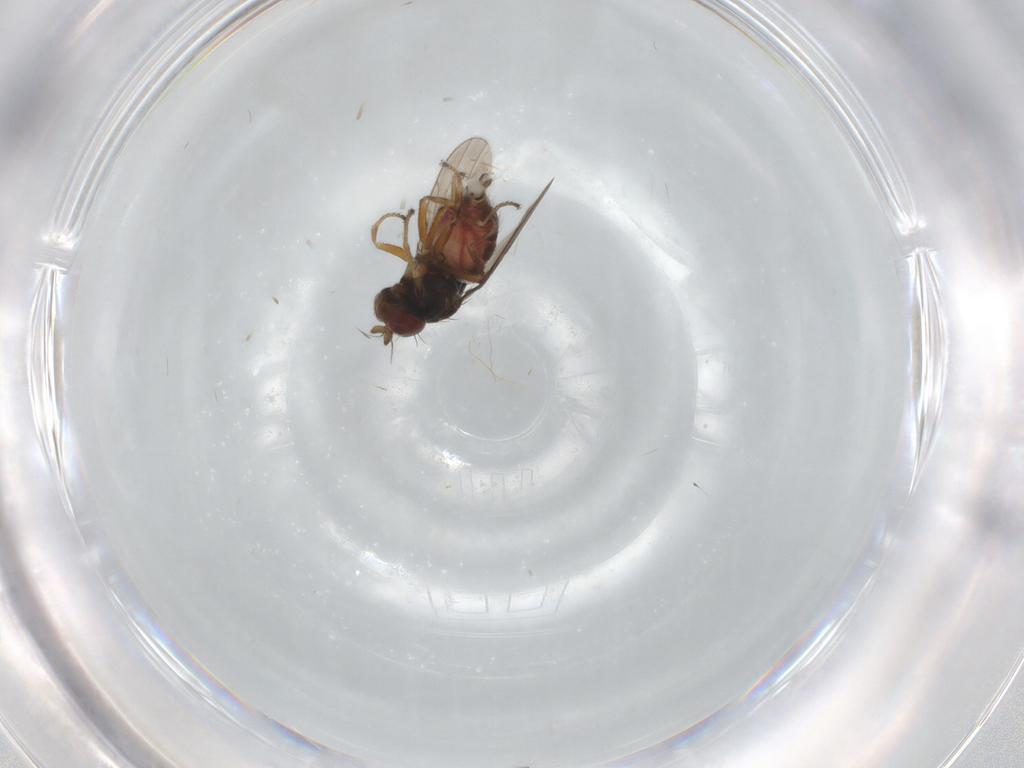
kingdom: Animalia
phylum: Arthropoda
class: Insecta
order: Diptera
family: Ephydridae
